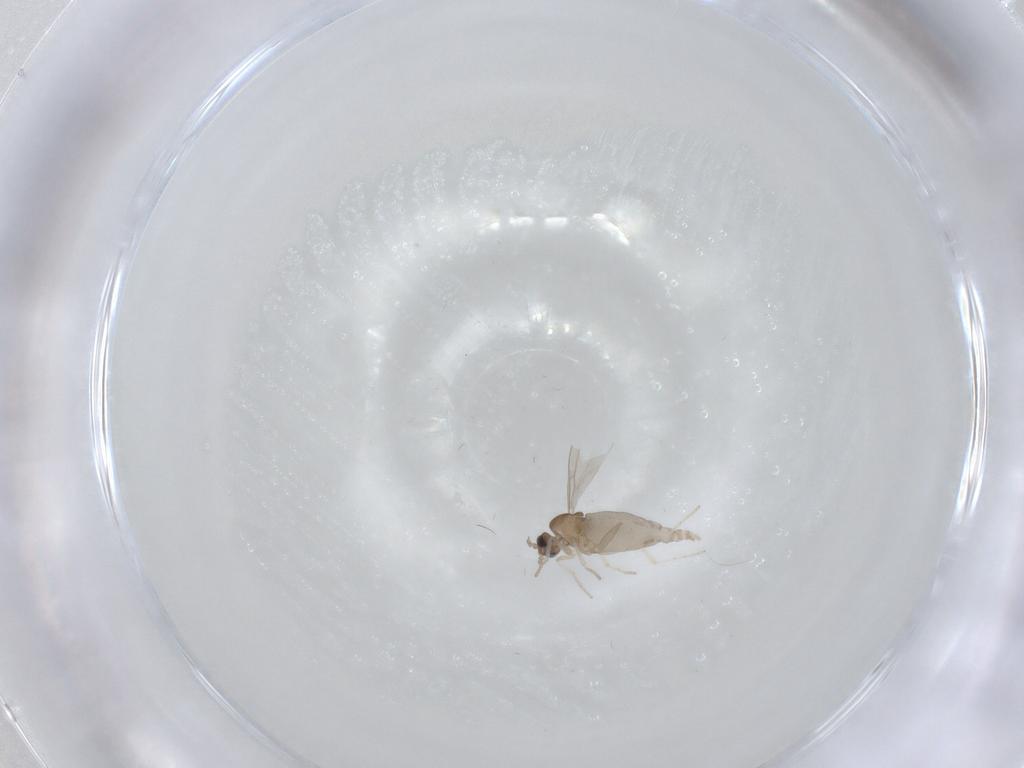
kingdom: Animalia
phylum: Arthropoda
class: Insecta
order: Diptera
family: Cecidomyiidae
